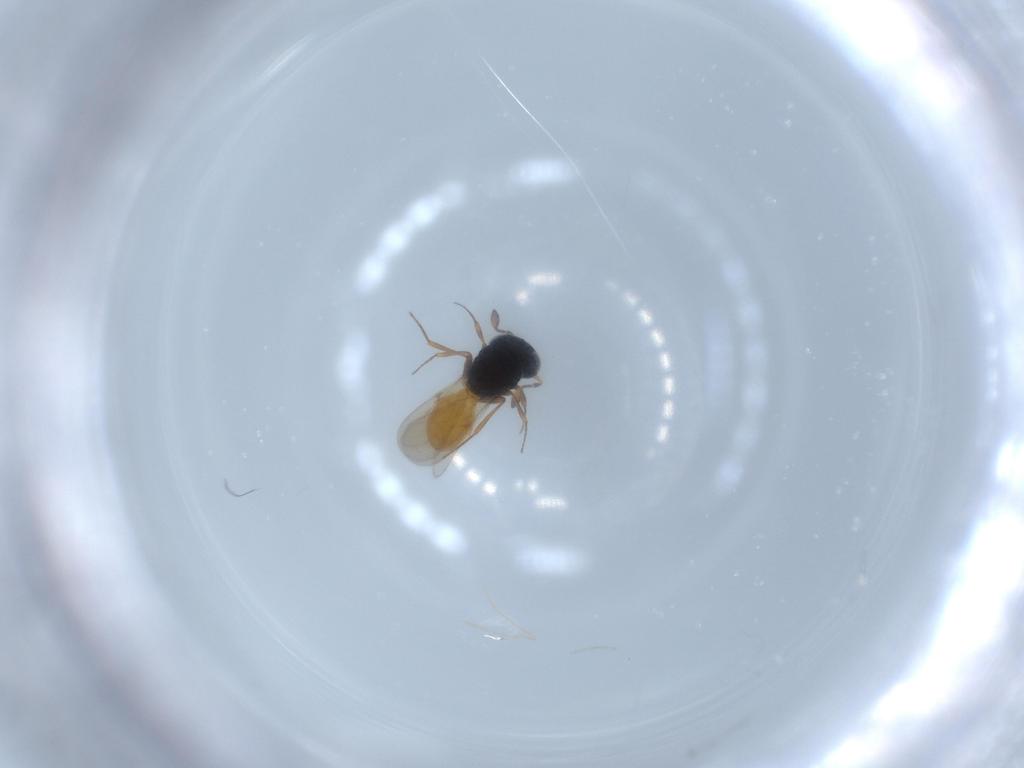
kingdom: Animalia
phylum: Arthropoda
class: Insecta
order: Hymenoptera
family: Scelionidae
